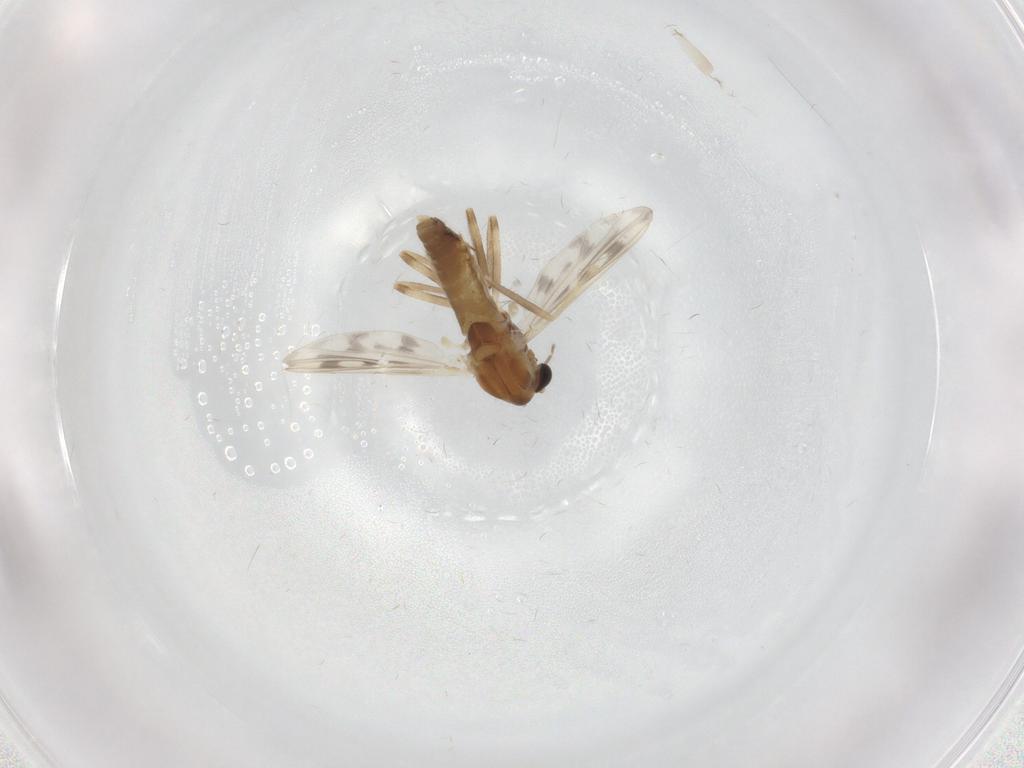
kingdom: Animalia
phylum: Arthropoda
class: Insecta
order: Diptera
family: Chironomidae
